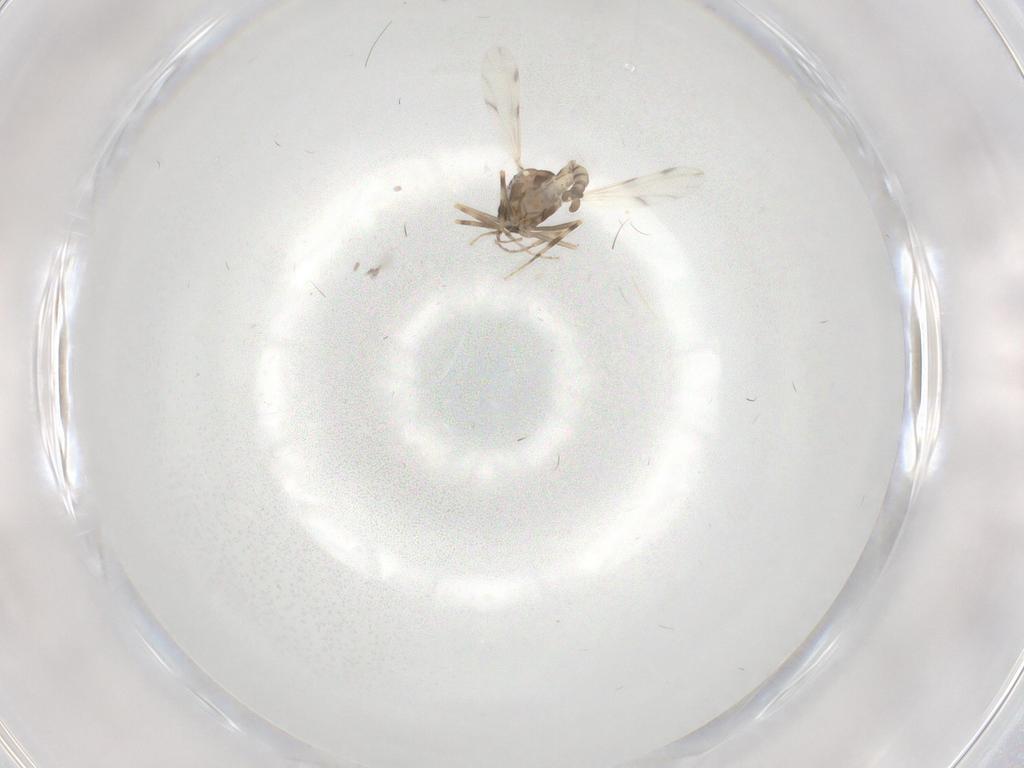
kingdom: Animalia
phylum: Arthropoda
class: Insecta
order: Diptera
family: Ceratopogonidae
